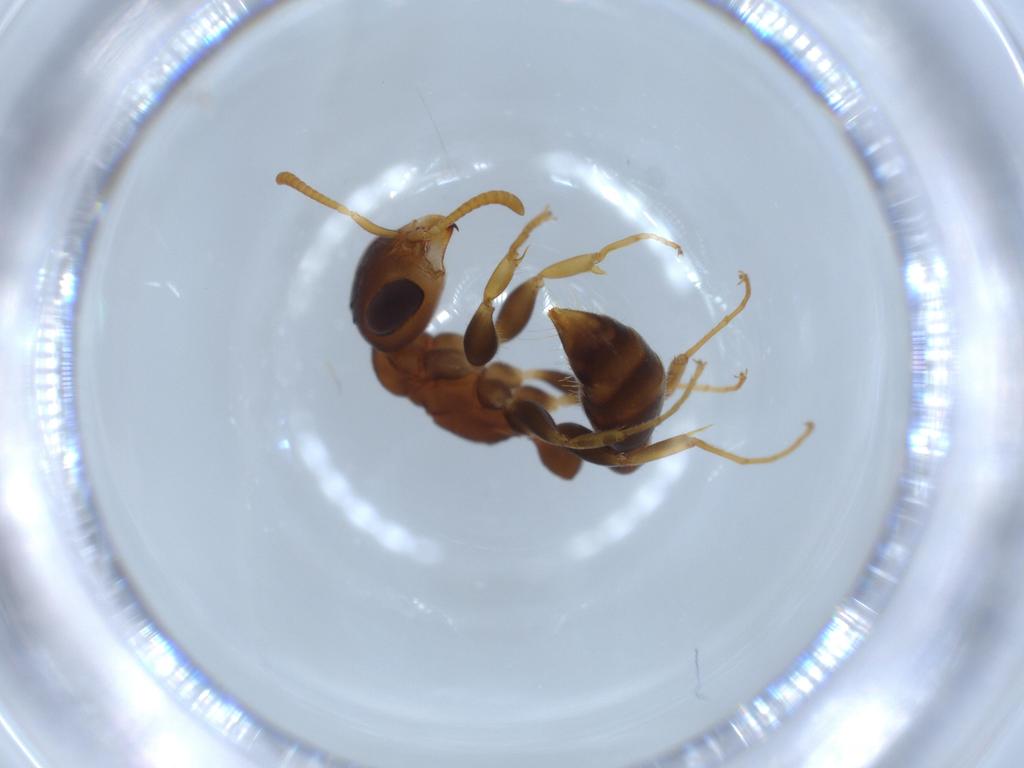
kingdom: Animalia
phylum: Arthropoda
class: Insecta
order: Hymenoptera
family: Formicidae
